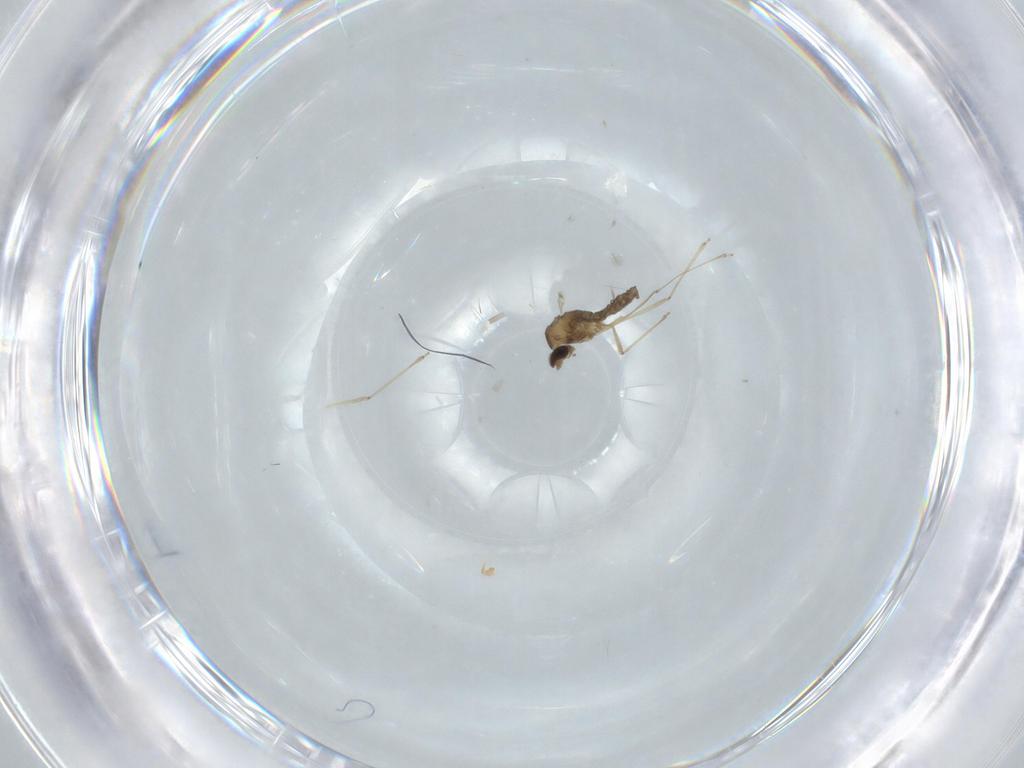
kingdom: Animalia
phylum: Arthropoda
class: Insecta
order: Diptera
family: Cecidomyiidae
